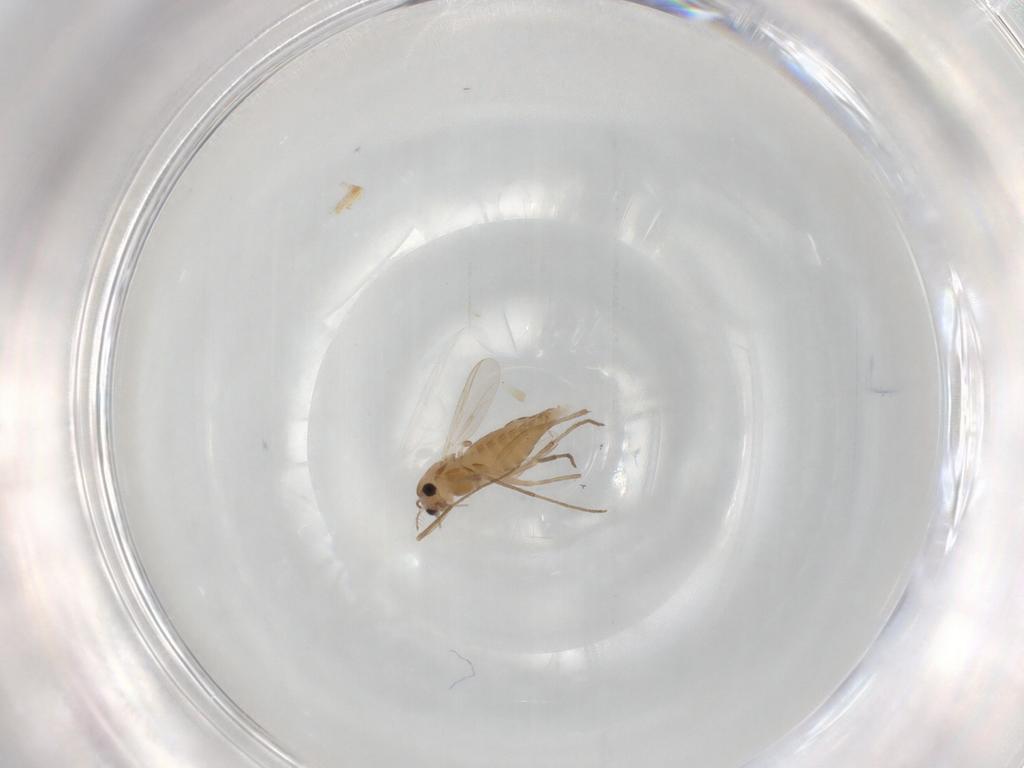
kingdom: Animalia
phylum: Arthropoda
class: Insecta
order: Diptera
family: Chironomidae
